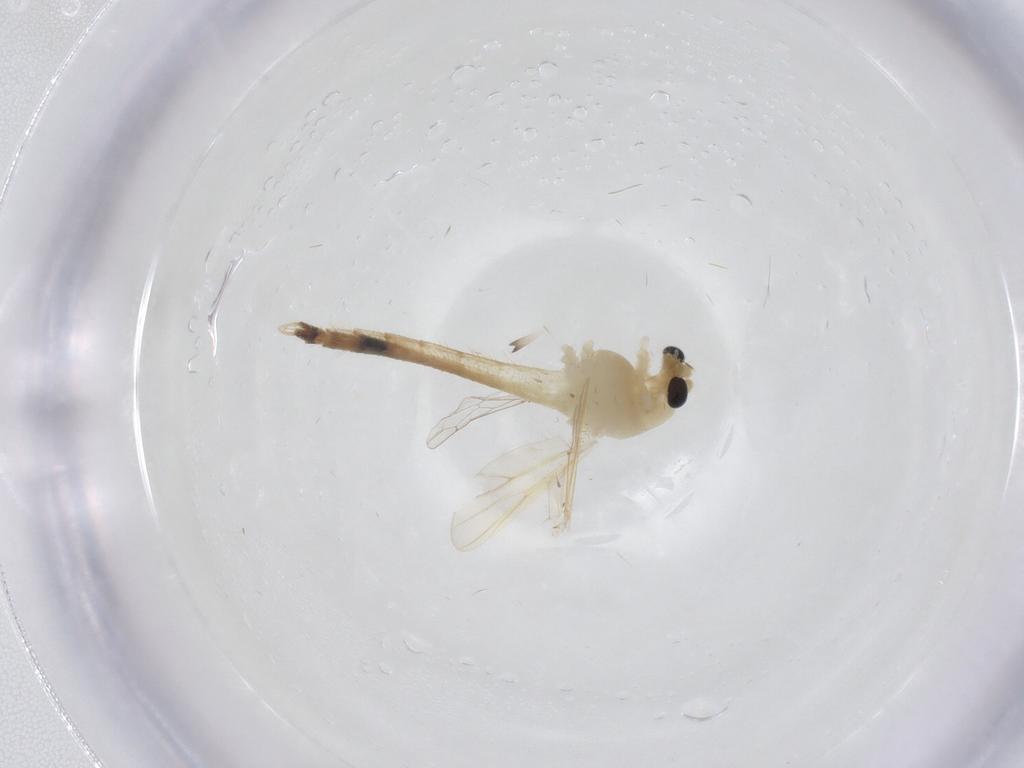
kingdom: Animalia
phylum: Arthropoda
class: Insecta
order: Diptera
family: Chironomidae
